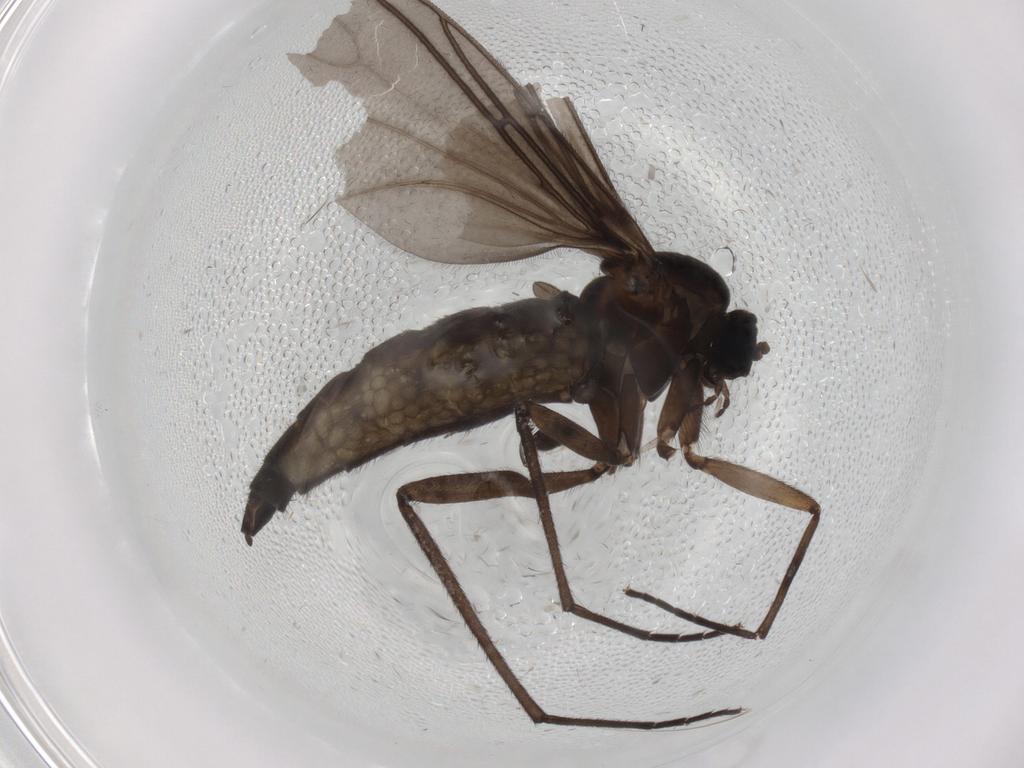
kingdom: Animalia
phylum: Arthropoda
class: Insecta
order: Diptera
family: Sciaridae
